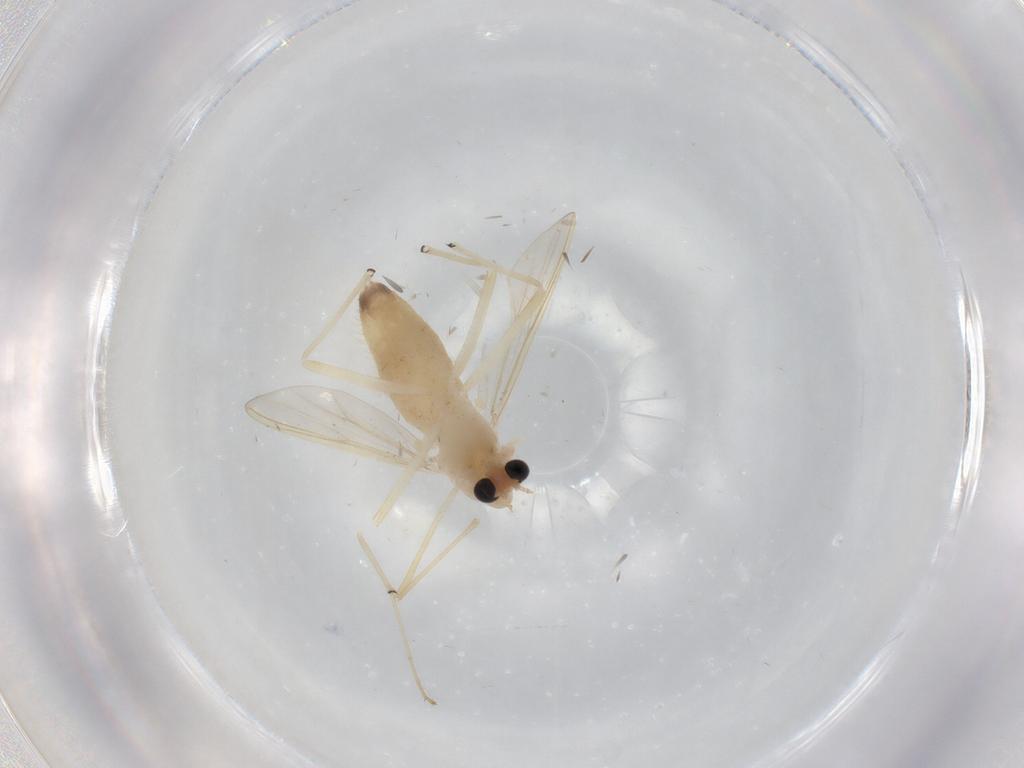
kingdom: Animalia
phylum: Arthropoda
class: Insecta
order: Diptera
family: Chironomidae
